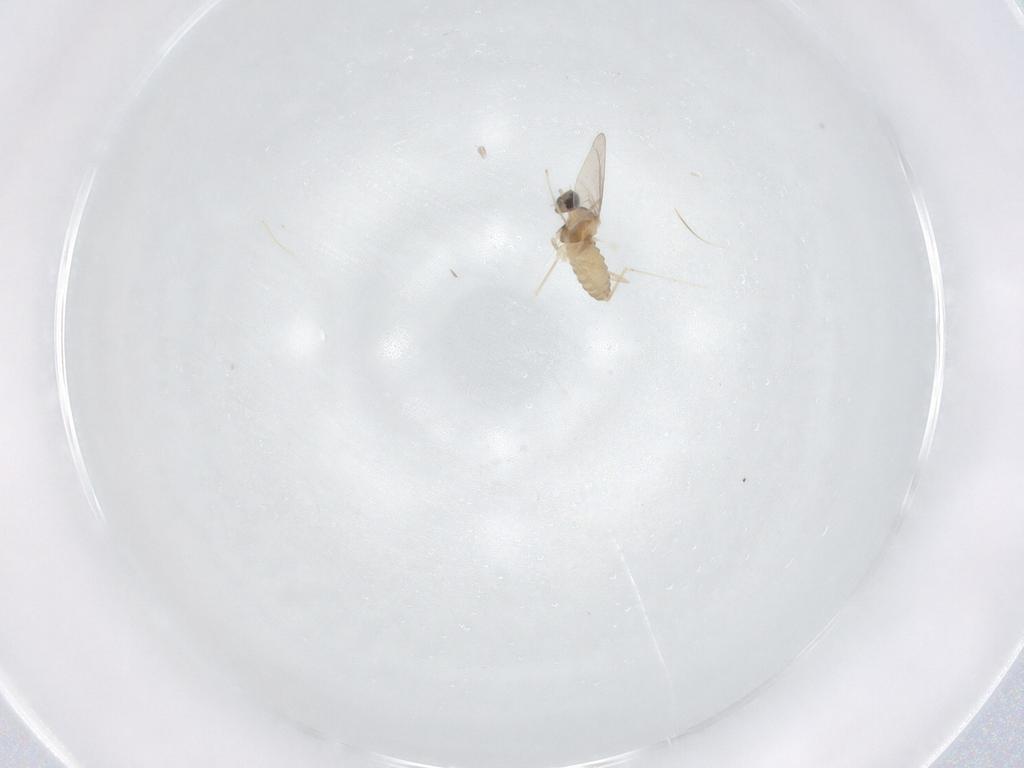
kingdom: Animalia
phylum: Arthropoda
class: Insecta
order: Diptera
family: Cecidomyiidae
